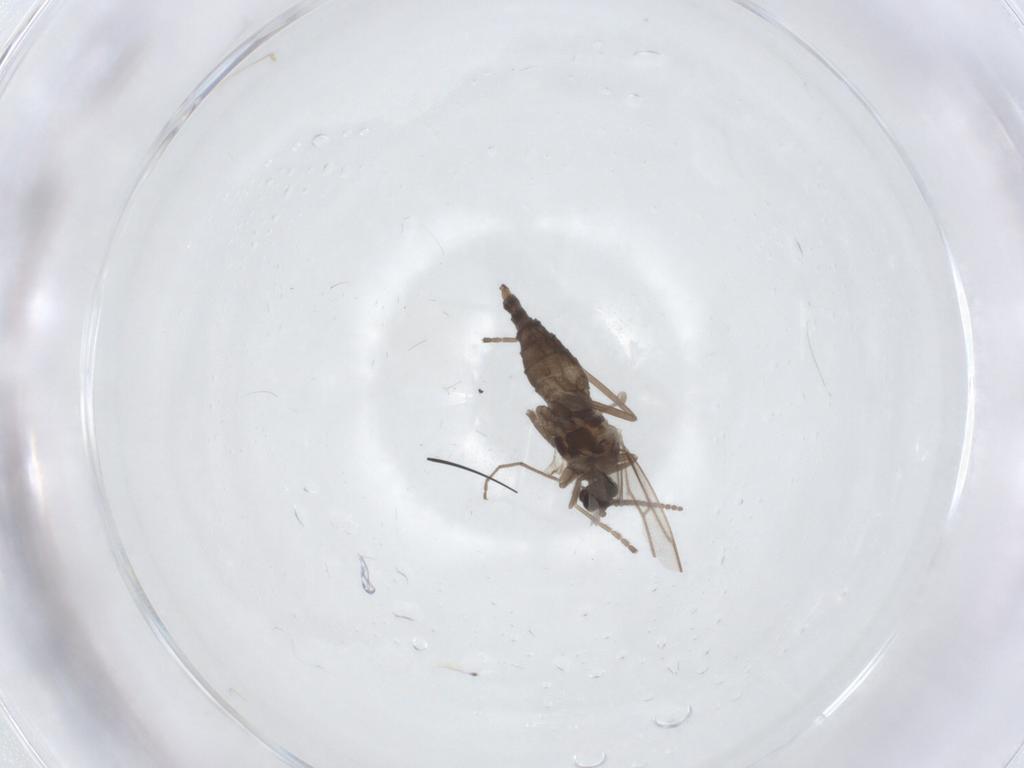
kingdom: Animalia
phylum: Arthropoda
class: Insecta
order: Diptera
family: Cecidomyiidae
